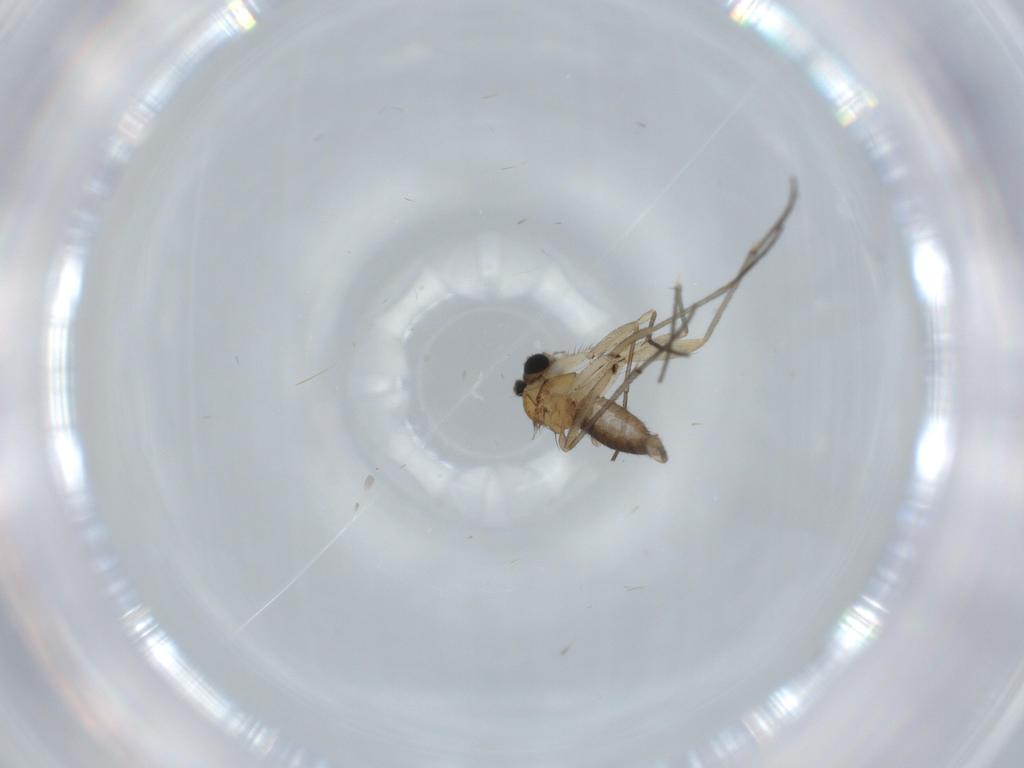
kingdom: Animalia
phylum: Arthropoda
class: Insecta
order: Diptera
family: Sciaridae
